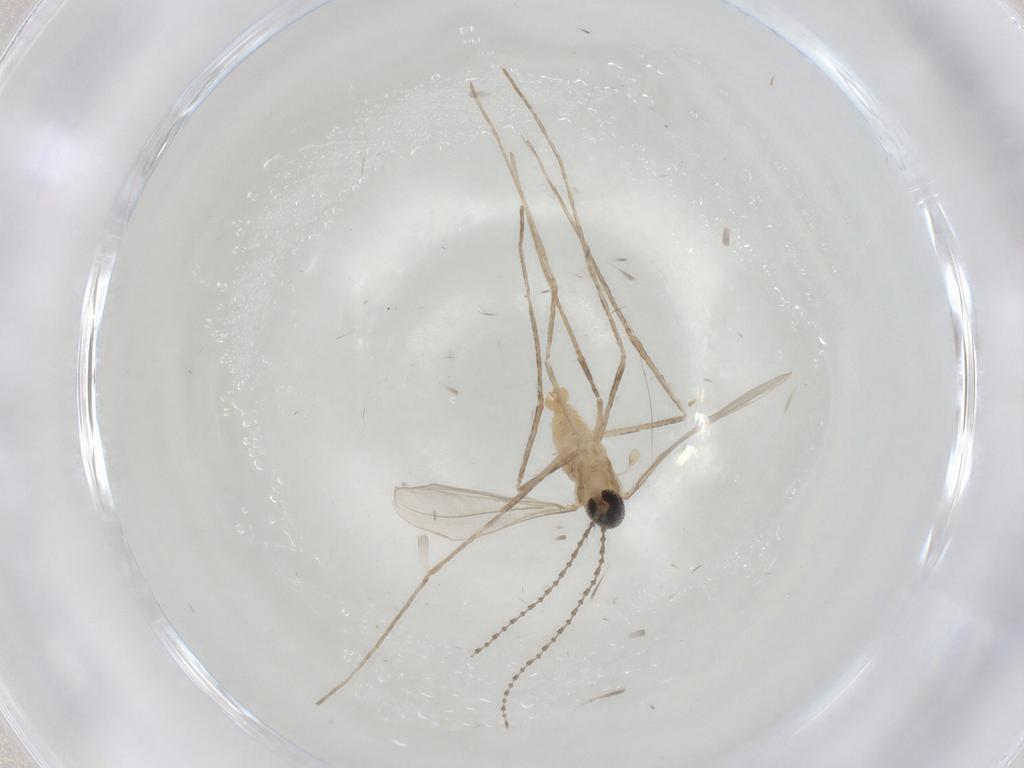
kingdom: Animalia
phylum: Arthropoda
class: Insecta
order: Diptera
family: Cecidomyiidae
